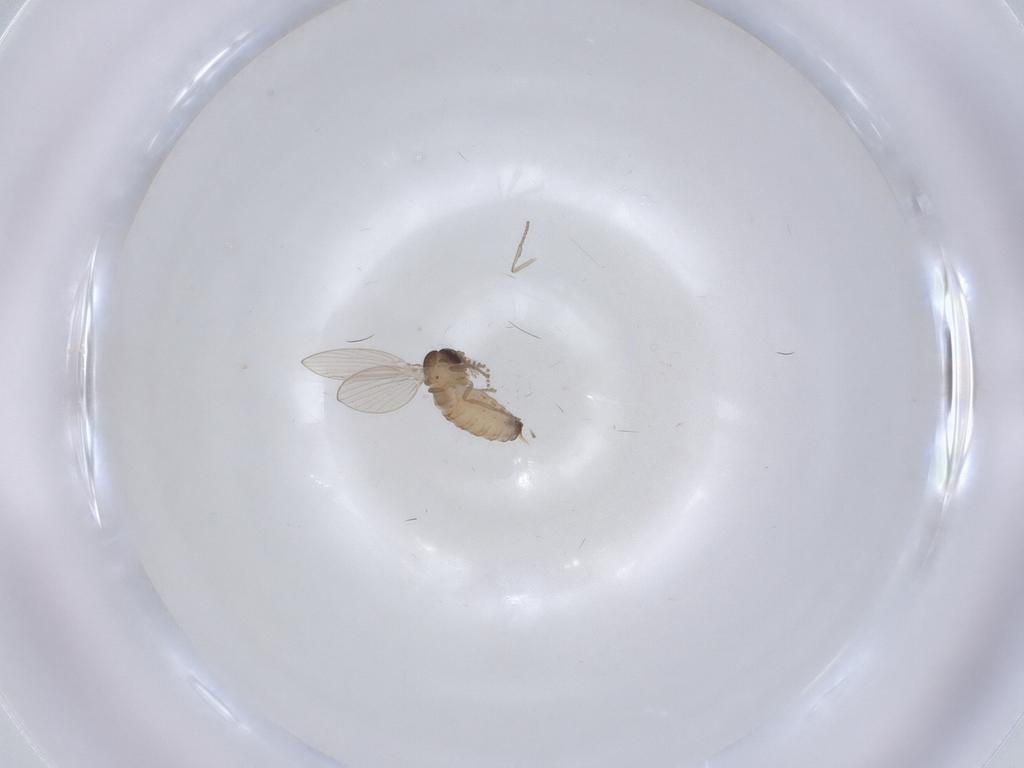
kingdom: Animalia
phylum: Arthropoda
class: Insecta
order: Diptera
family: Psychodidae
